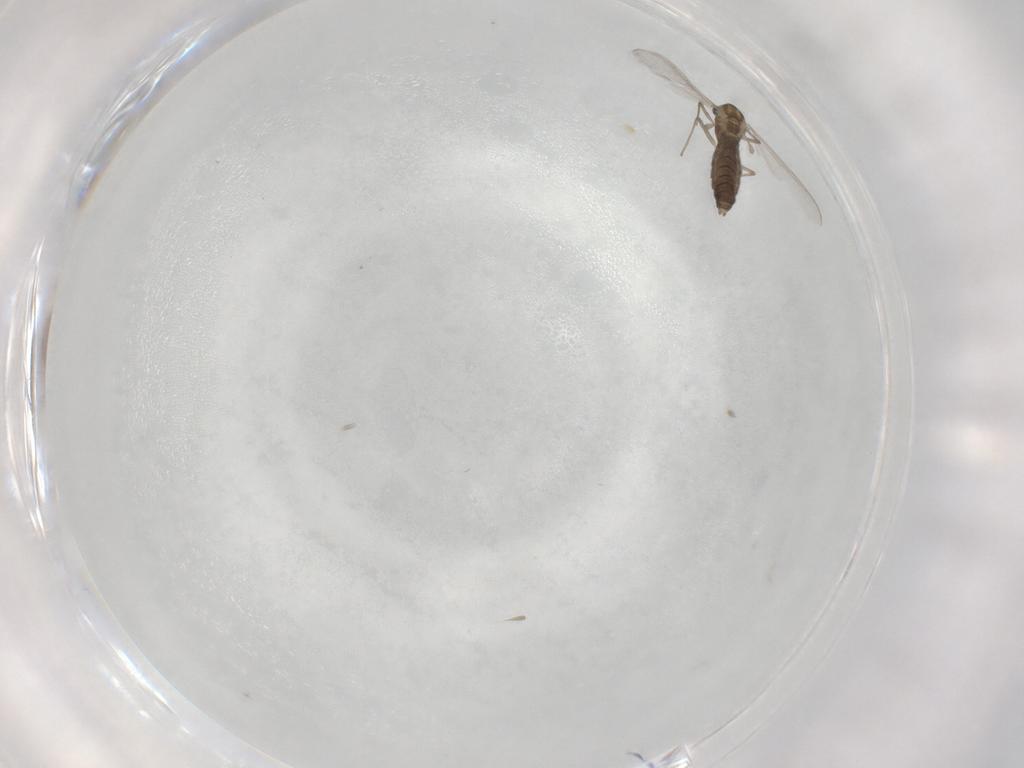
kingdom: Animalia
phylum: Arthropoda
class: Insecta
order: Diptera
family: Chironomidae
